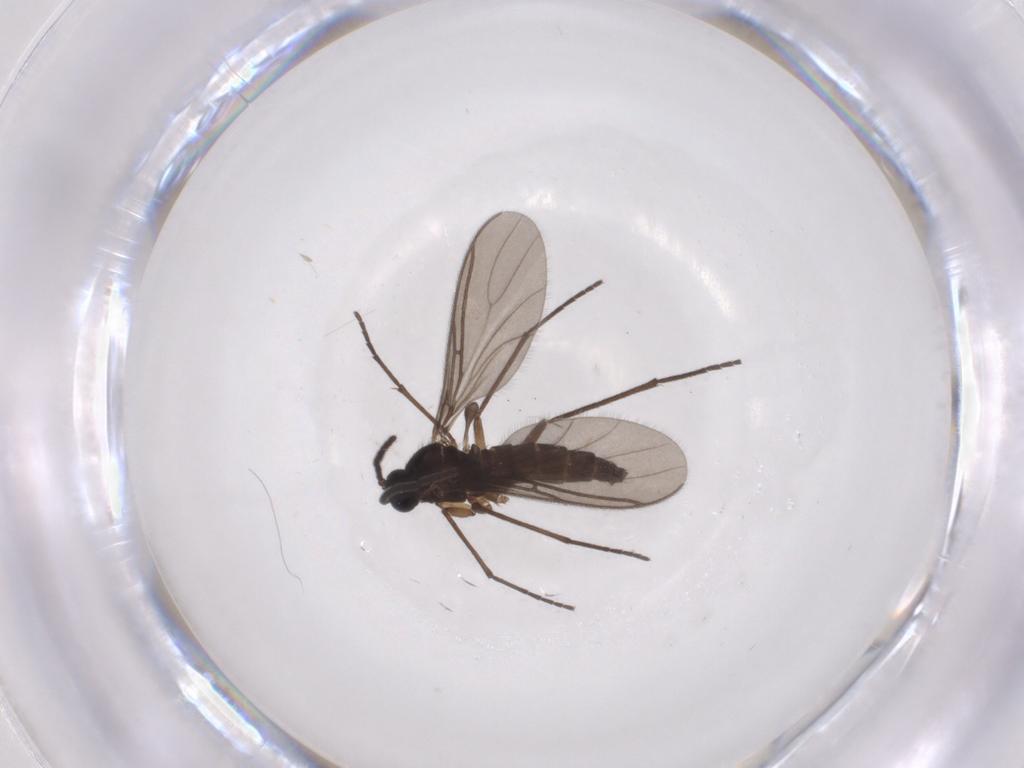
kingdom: Animalia
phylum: Arthropoda
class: Insecta
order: Diptera
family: Sciaridae
